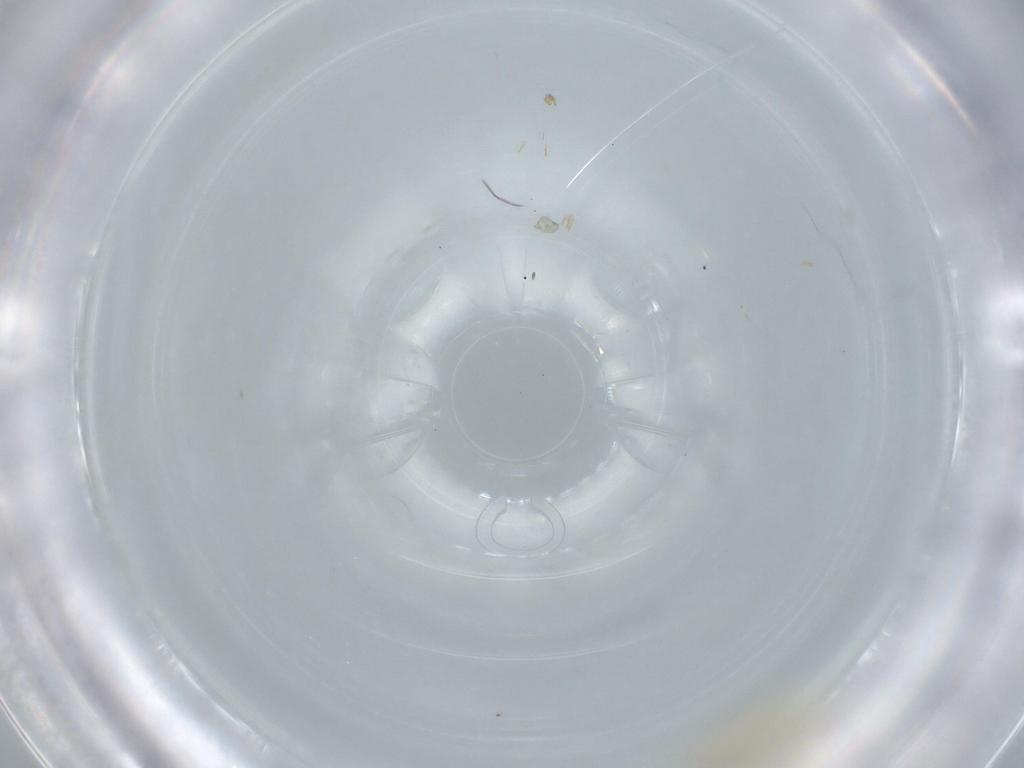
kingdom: Animalia
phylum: Arthropoda
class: Insecta
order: Diptera
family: Cecidomyiidae
